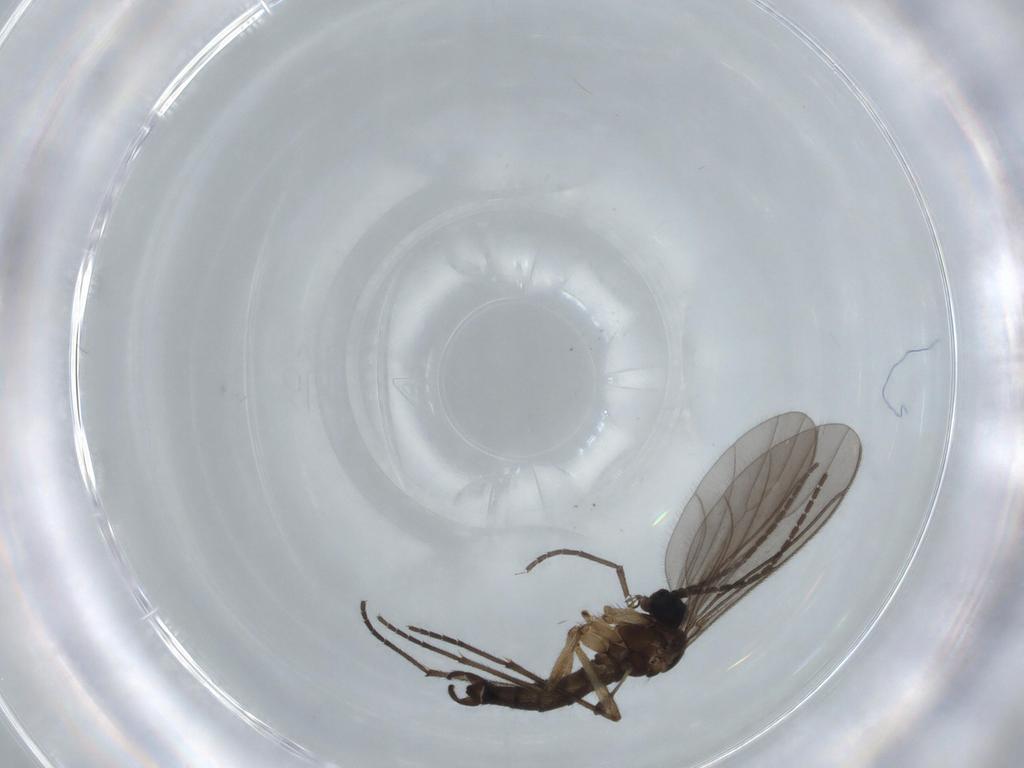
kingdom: Animalia
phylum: Arthropoda
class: Insecta
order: Diptera
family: Sciaridae
